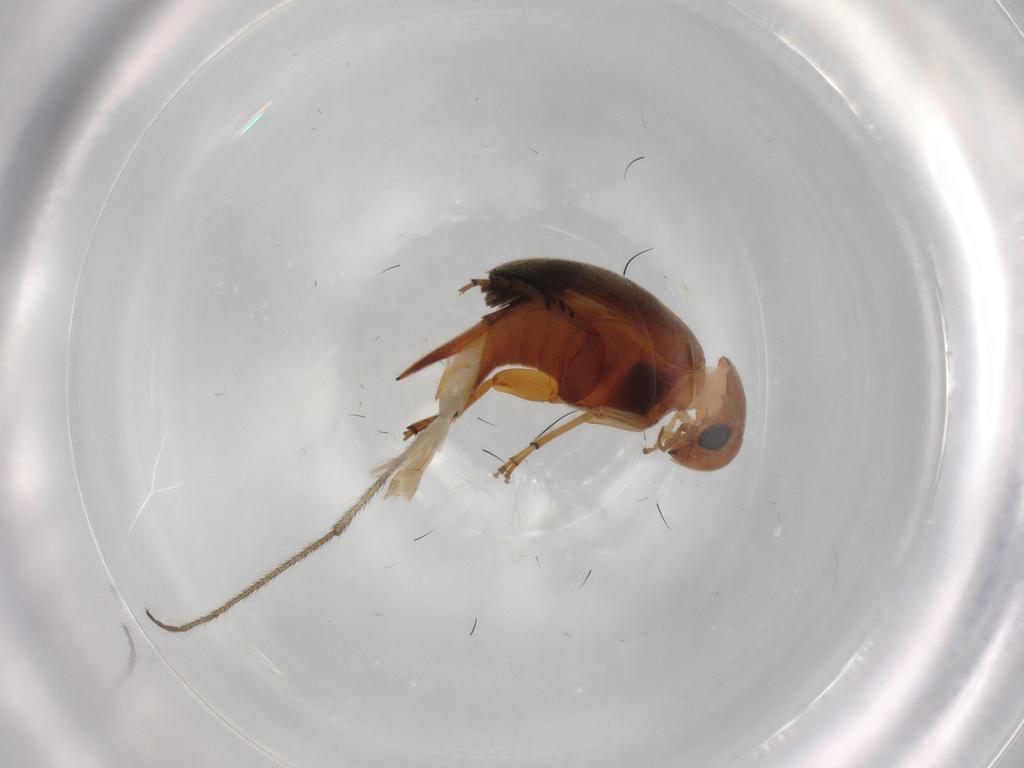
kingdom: Animalia
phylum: Arthropoda
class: Insecta
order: Coleoptera
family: Mordellidae
